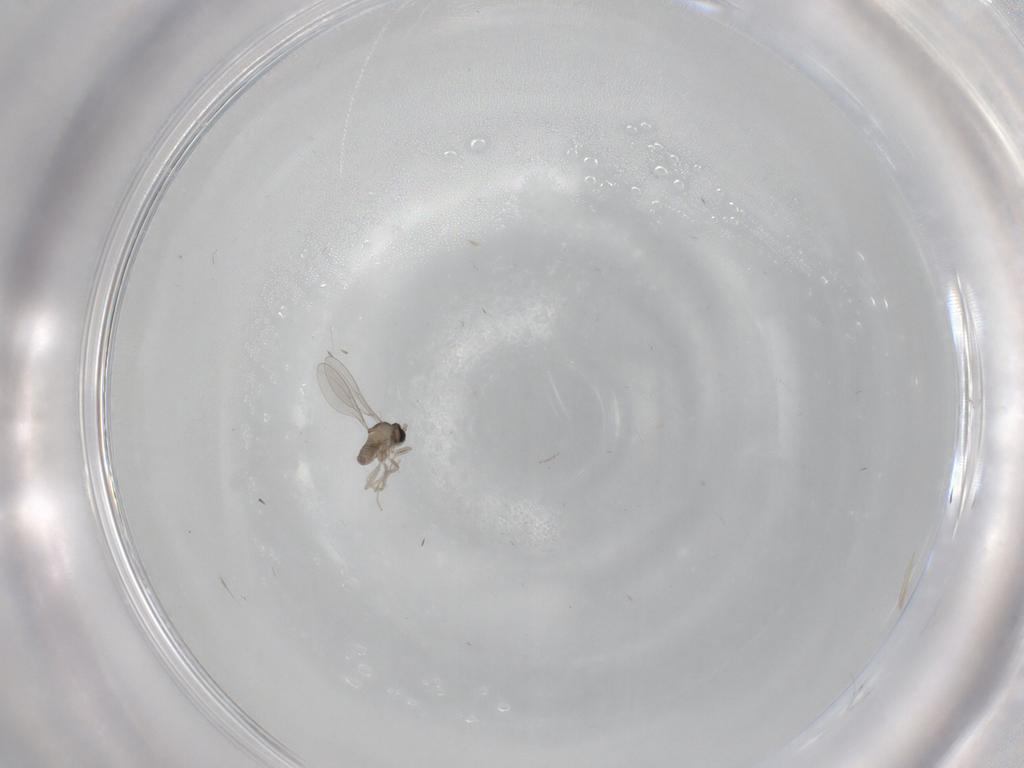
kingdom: Animalia
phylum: Arthropoda
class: Insecta
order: Diptera
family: Cecidomyiidae
